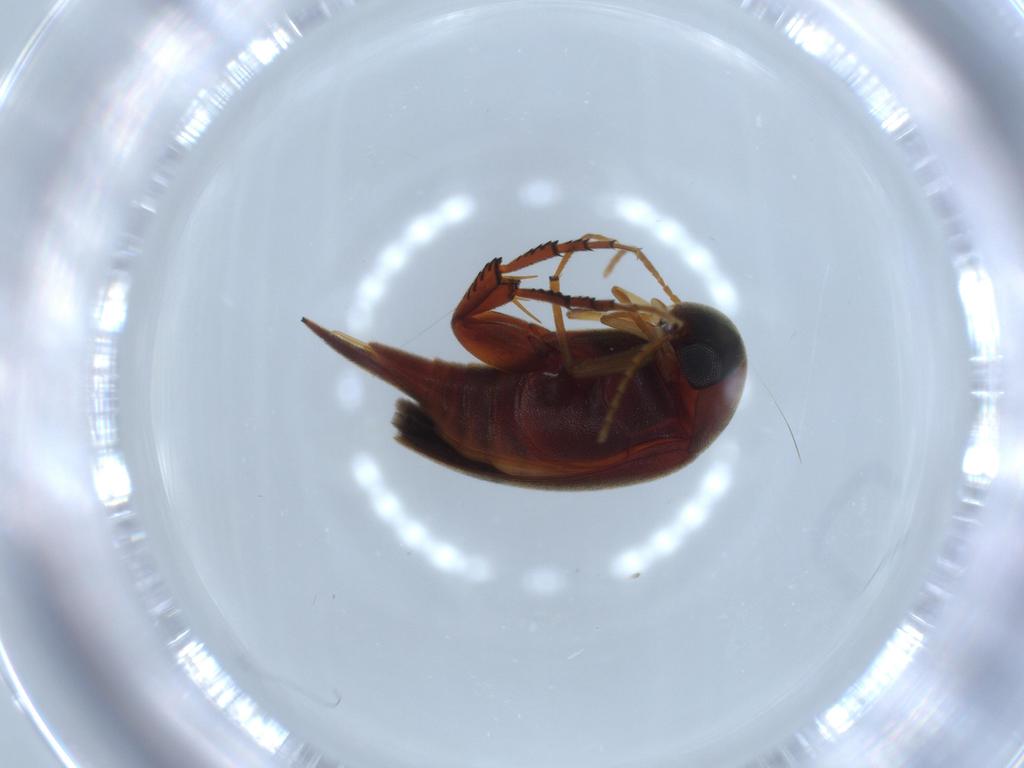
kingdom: Animalia
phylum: Arthropoda
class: Insecta
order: Coleoptera
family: Mordellidae
